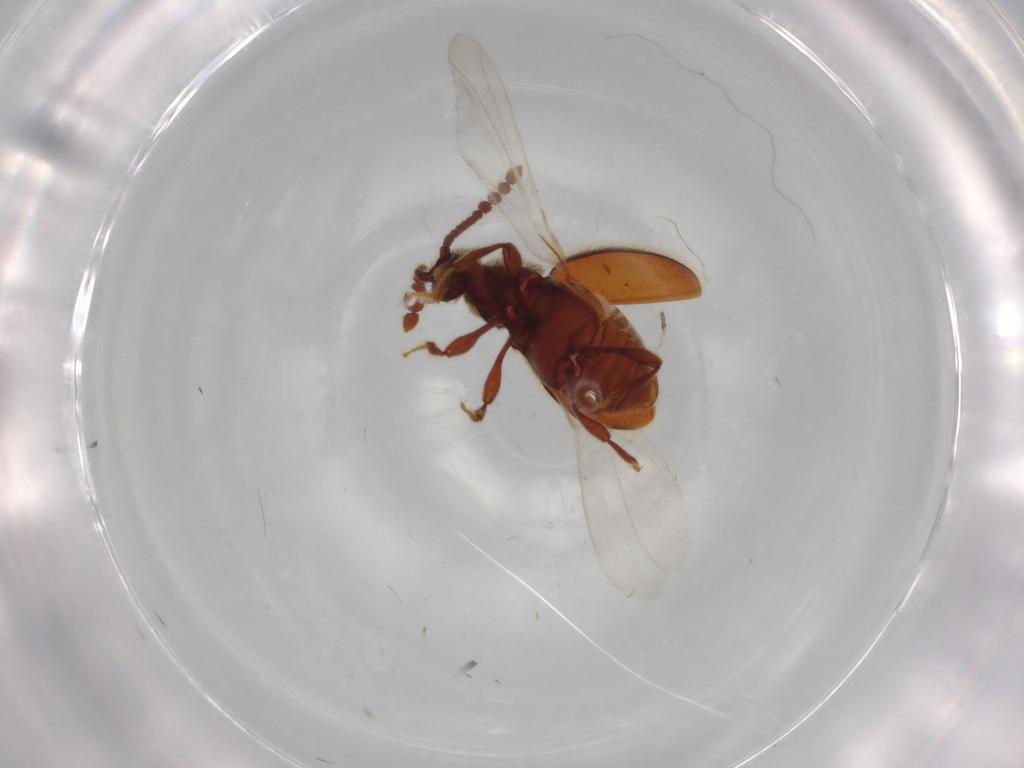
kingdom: Animalia
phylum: Arthropoda
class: Insecta
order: Coleoptera
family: Staphylinidae
